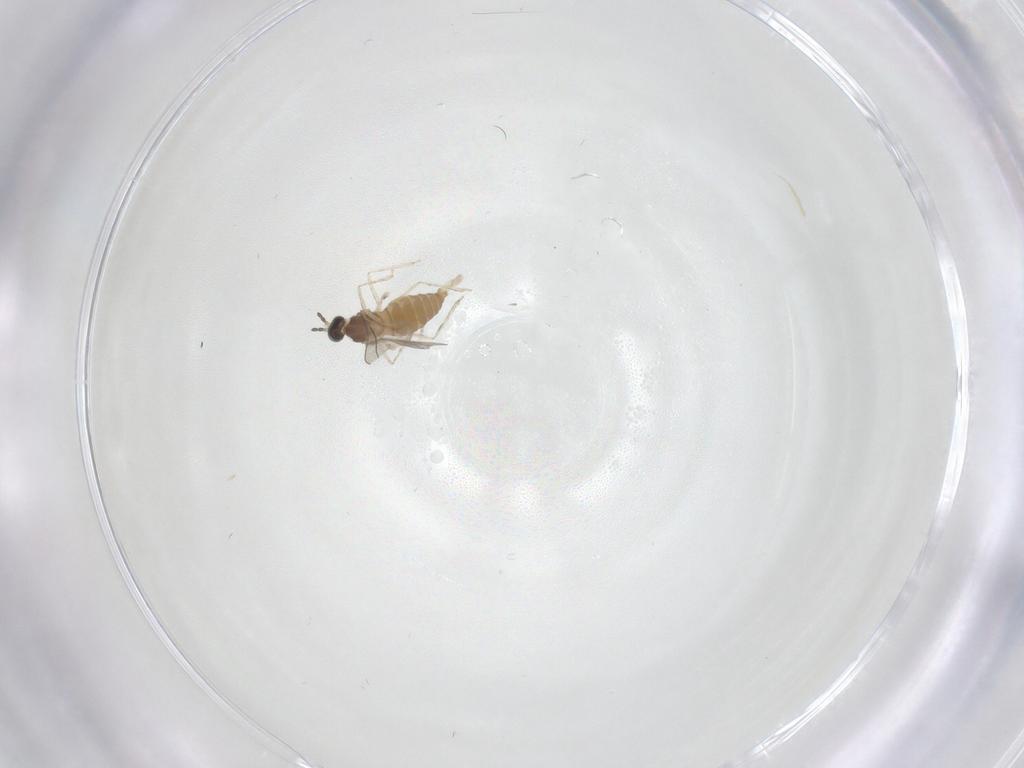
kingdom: Animalia
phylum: Arthropoda
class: Insecta
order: Diptera
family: Cecidomyiidae
